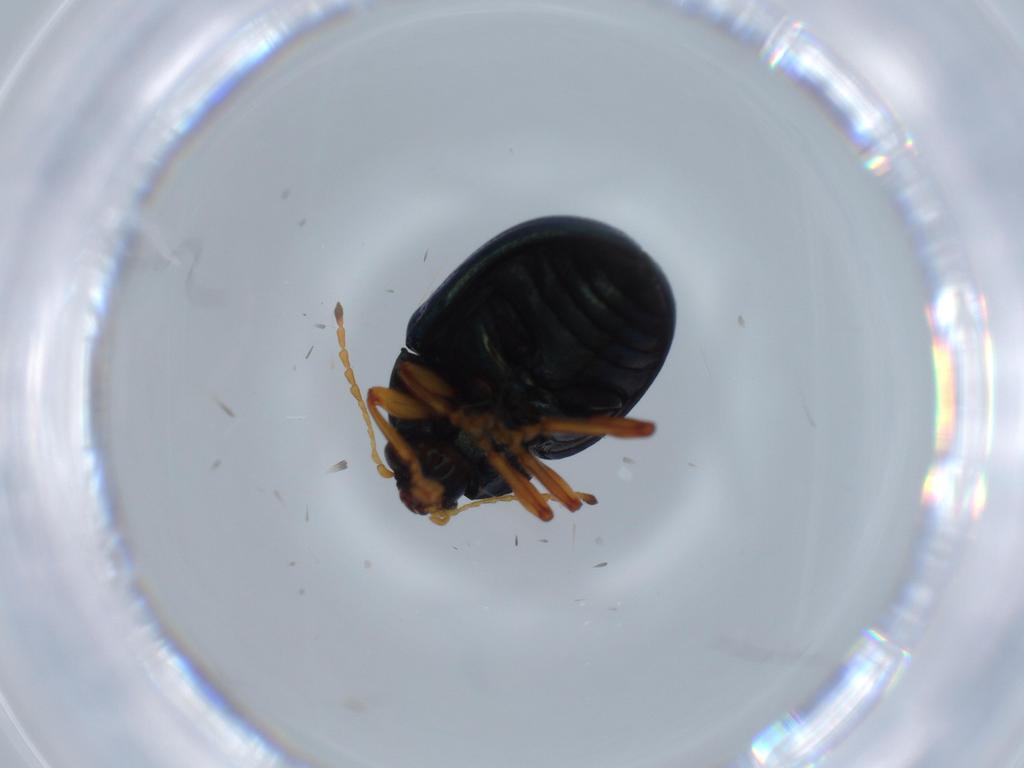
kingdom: Animalia
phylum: Arthropoda
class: Insecta
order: Coleoptera
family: Chrysomelidae
